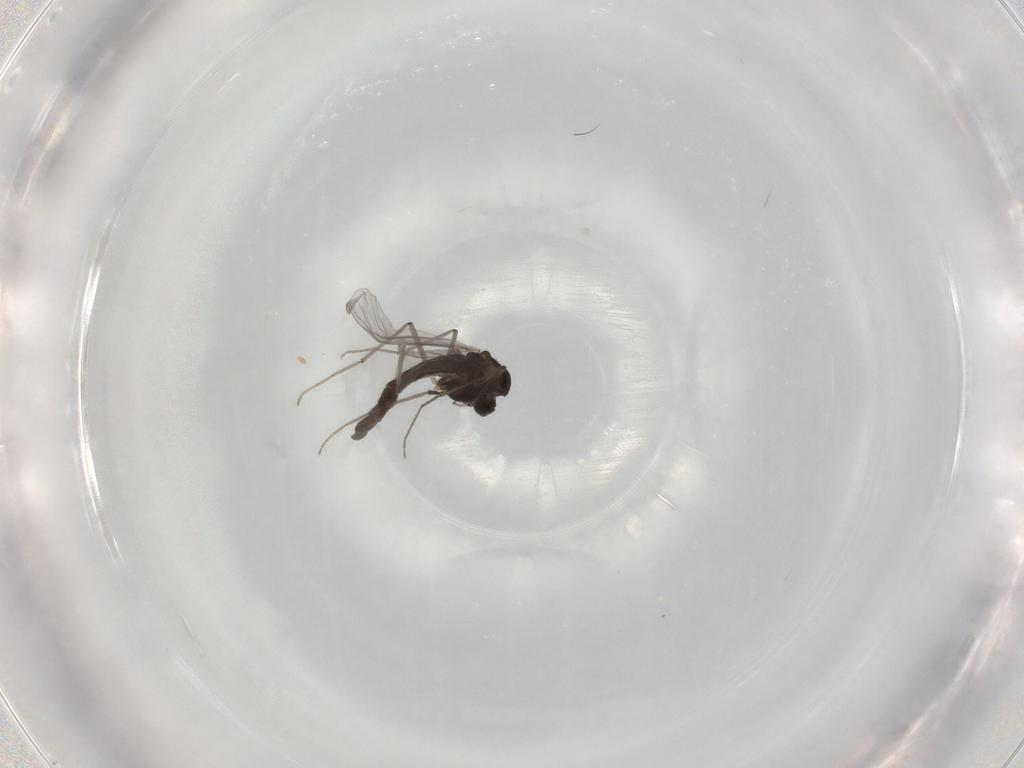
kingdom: Animalia
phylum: Arthropoda
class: Insecta
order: Diptera
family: Chironomidae
